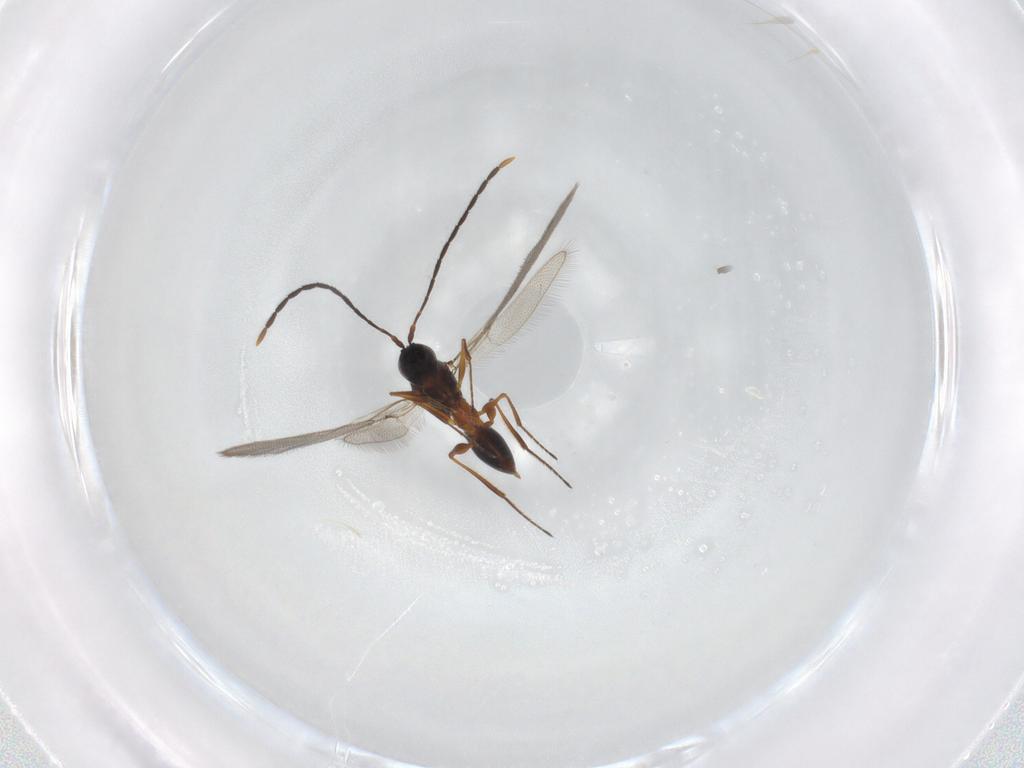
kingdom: Animalia
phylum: Arthropoda
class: Insecta
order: Hymenoptera
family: Figitidae
